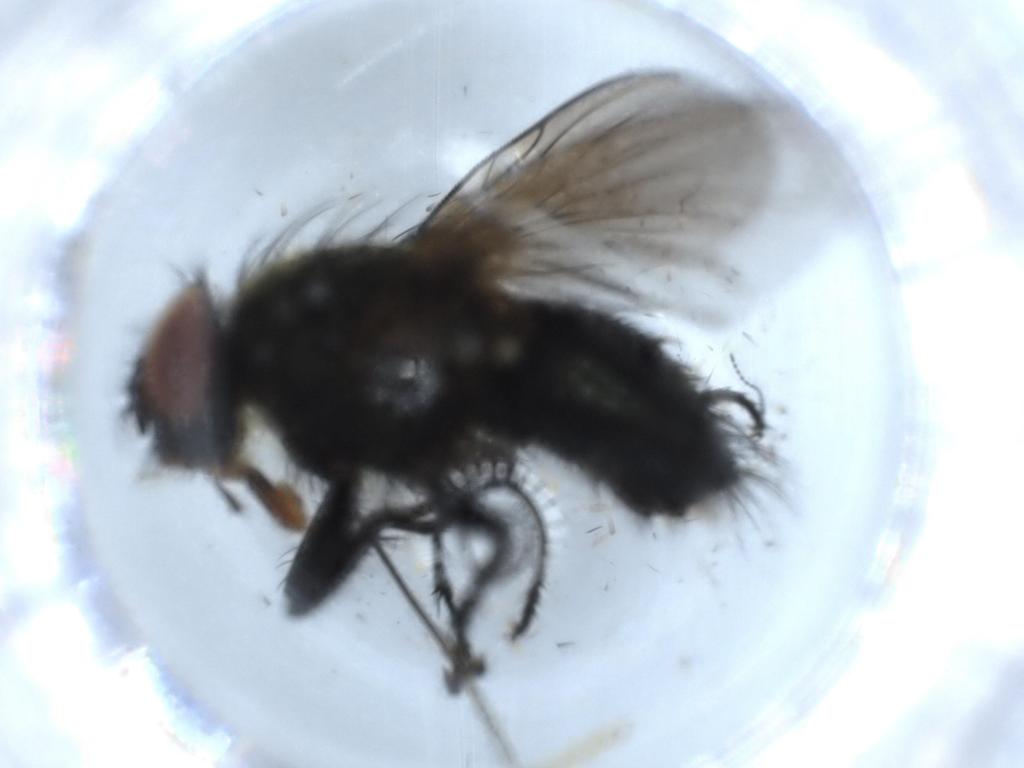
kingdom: Animalia
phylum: Arthropoda
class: Insecta
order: Diptera
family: Polleniidae
